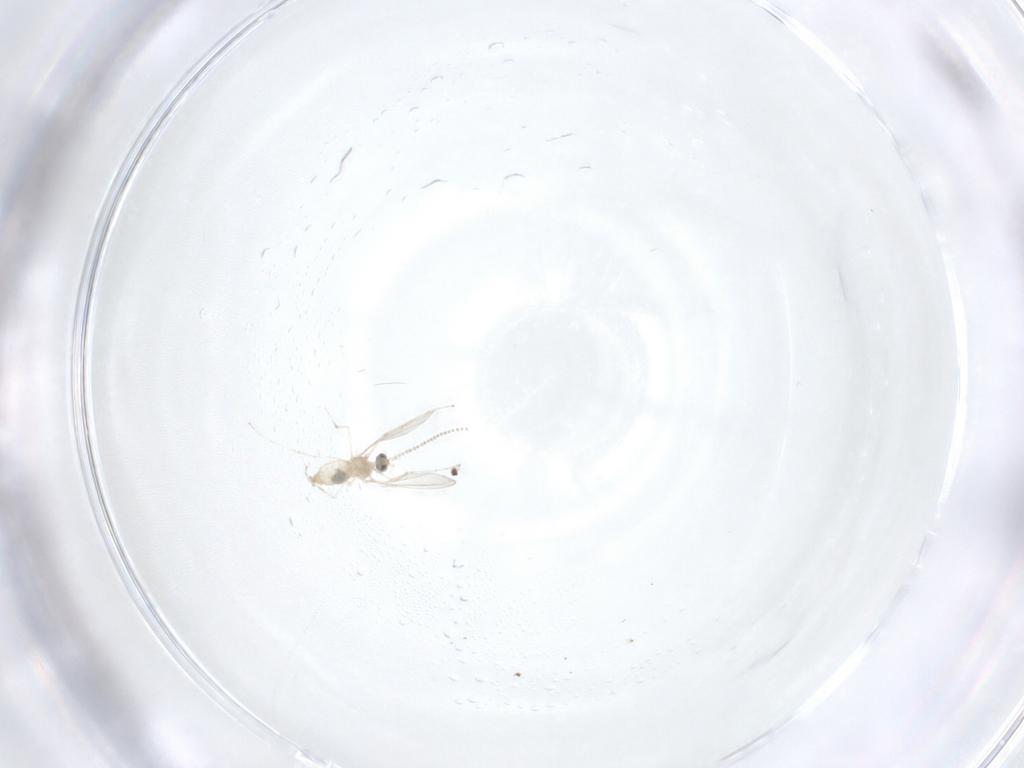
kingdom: Animalia
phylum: Arthropoda
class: Insecta
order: Diptera
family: Cecidomyiidae
